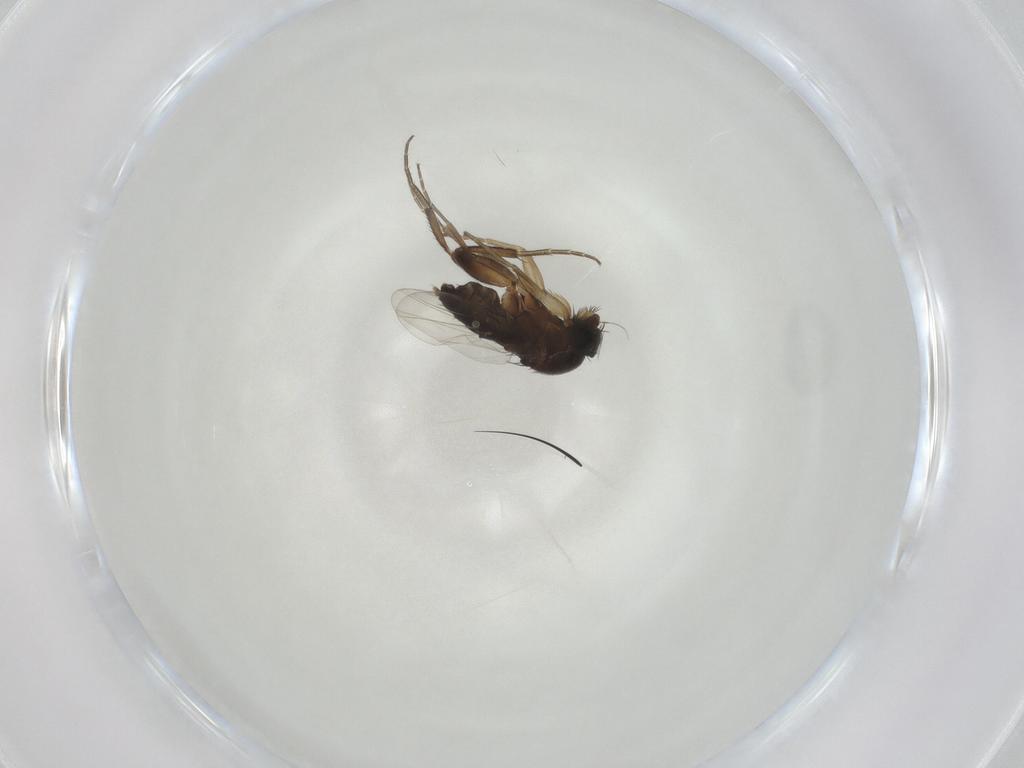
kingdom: Animalia
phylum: Arthropoda
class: Insecta
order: Diptera
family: Phoridae
